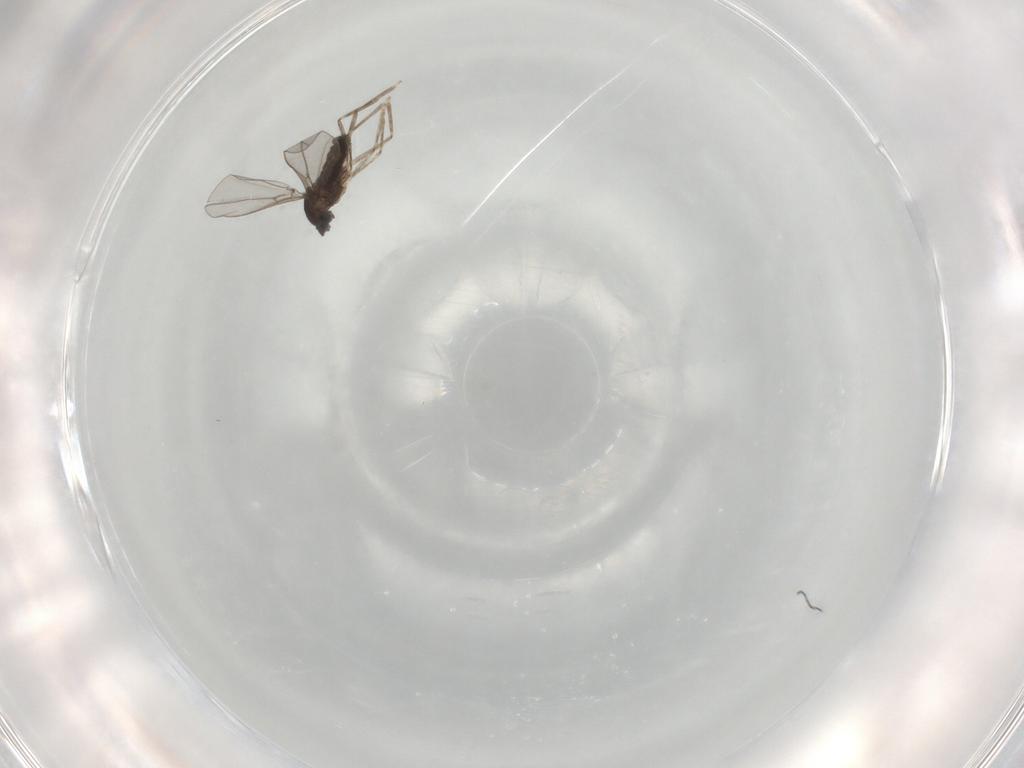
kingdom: Animalia
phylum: Arthropoda
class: Insecta
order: Diptera
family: Cecidomyiidae
